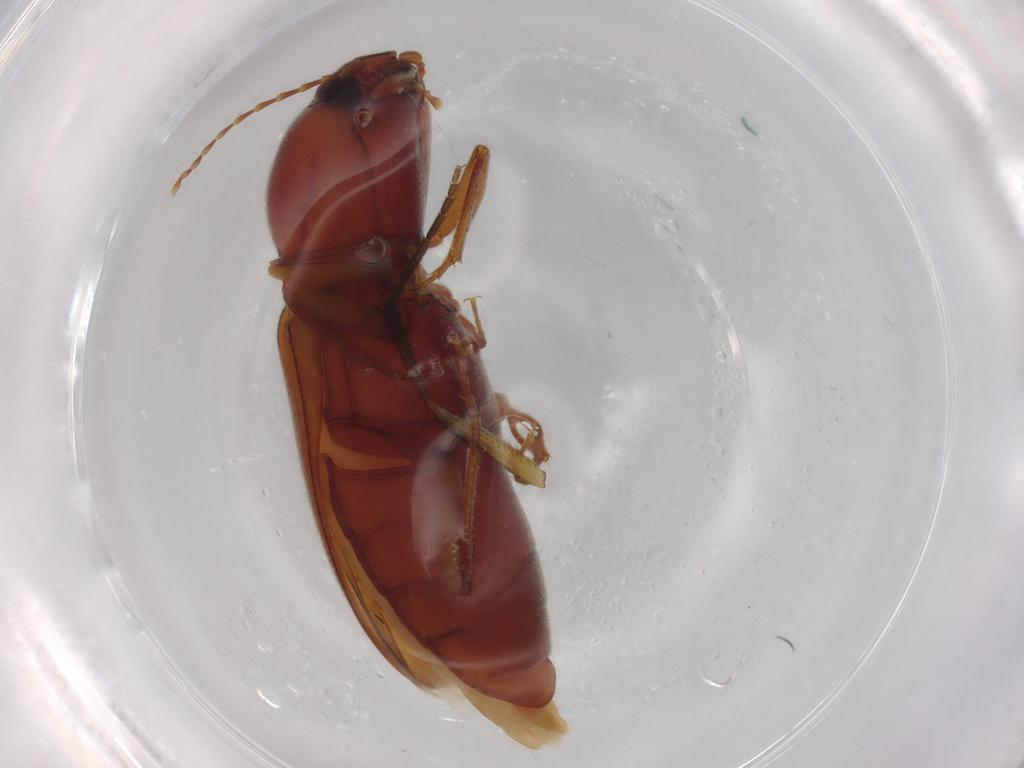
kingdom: Animalia
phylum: Arthropoda
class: Insecta
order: Coleoptera
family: Elateridae
